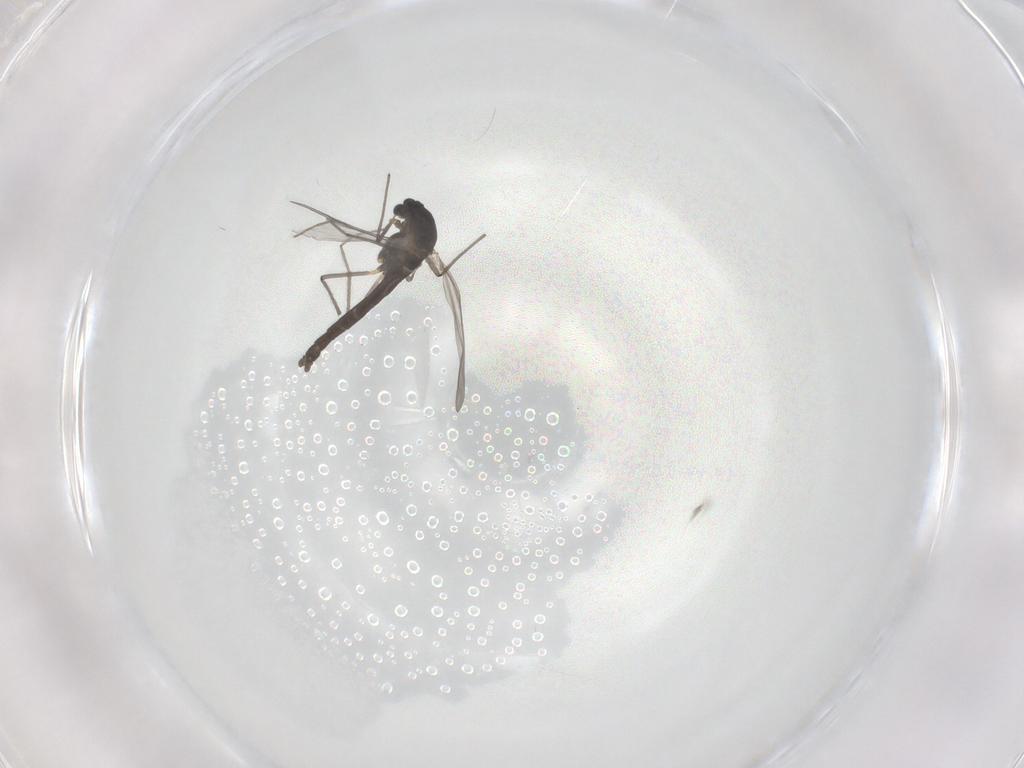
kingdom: Animalia
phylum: Arthropoda
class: Insecta
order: Diptera
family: Chironomidae
